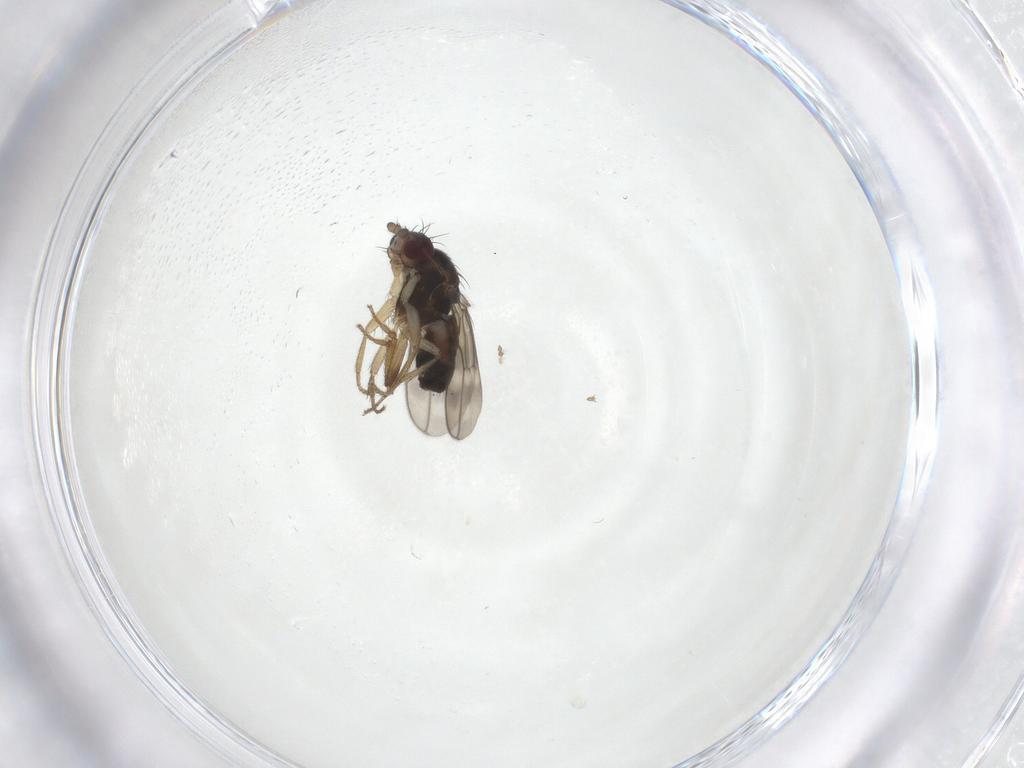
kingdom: Animalia
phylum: Arthropoda
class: Insecta
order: Diptera
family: Sphaeroceridae
